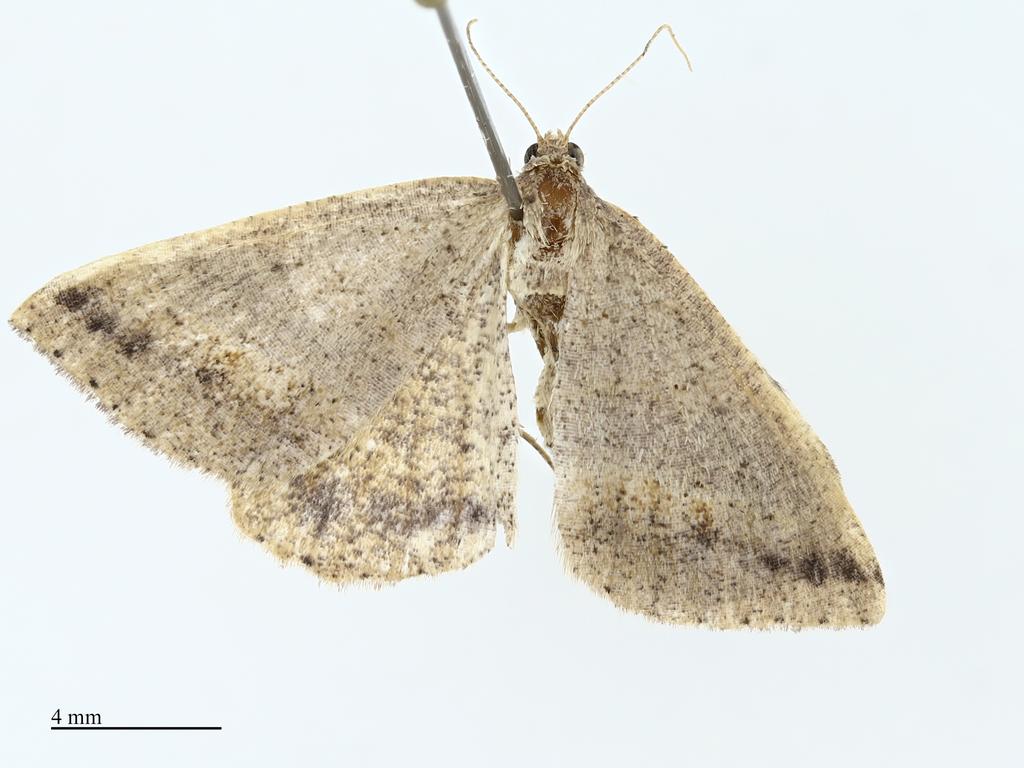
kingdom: Animalia
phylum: Arthropoda
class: Insecta
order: Lepidoptera
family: Geometridae
